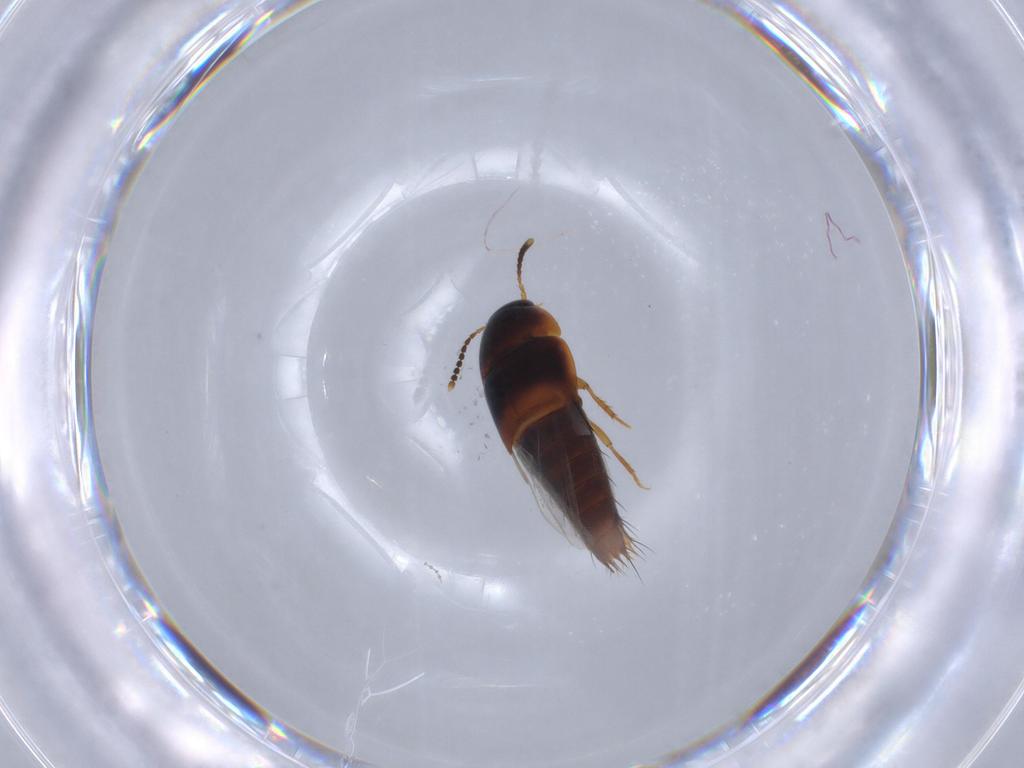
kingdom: Animalia
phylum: Arthropoda
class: Insecta
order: Coleoptera
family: Staphylinidae
